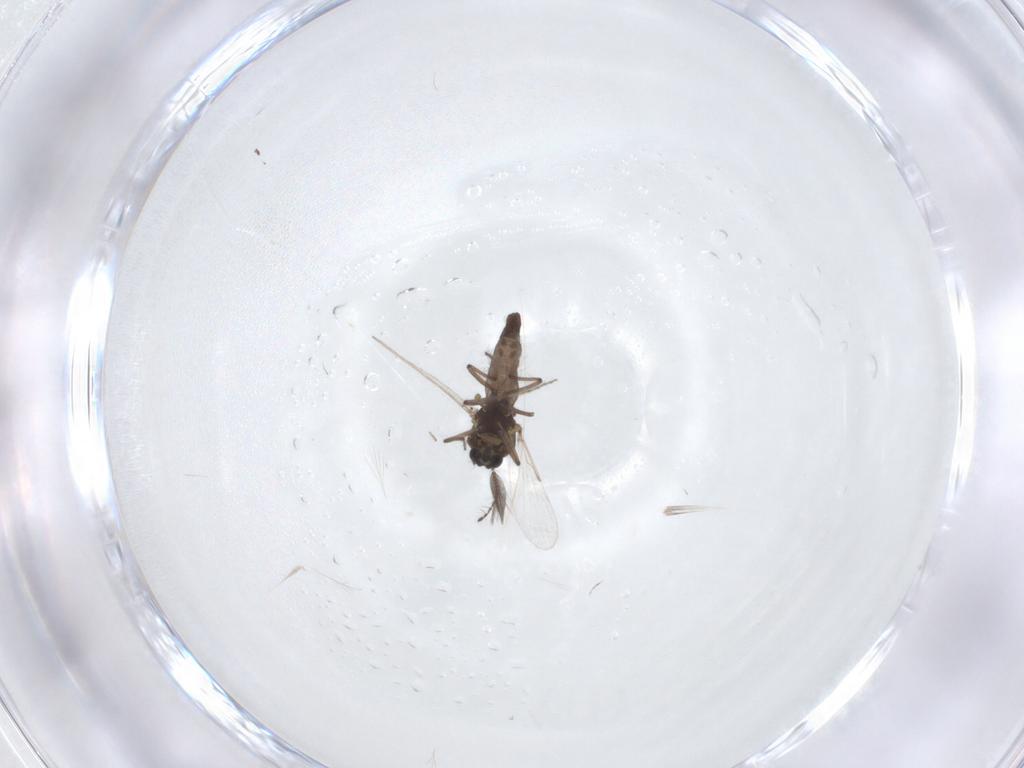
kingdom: Animalia
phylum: Arthropoda
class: Insecta
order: Diptera
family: Ceratopogonidae
